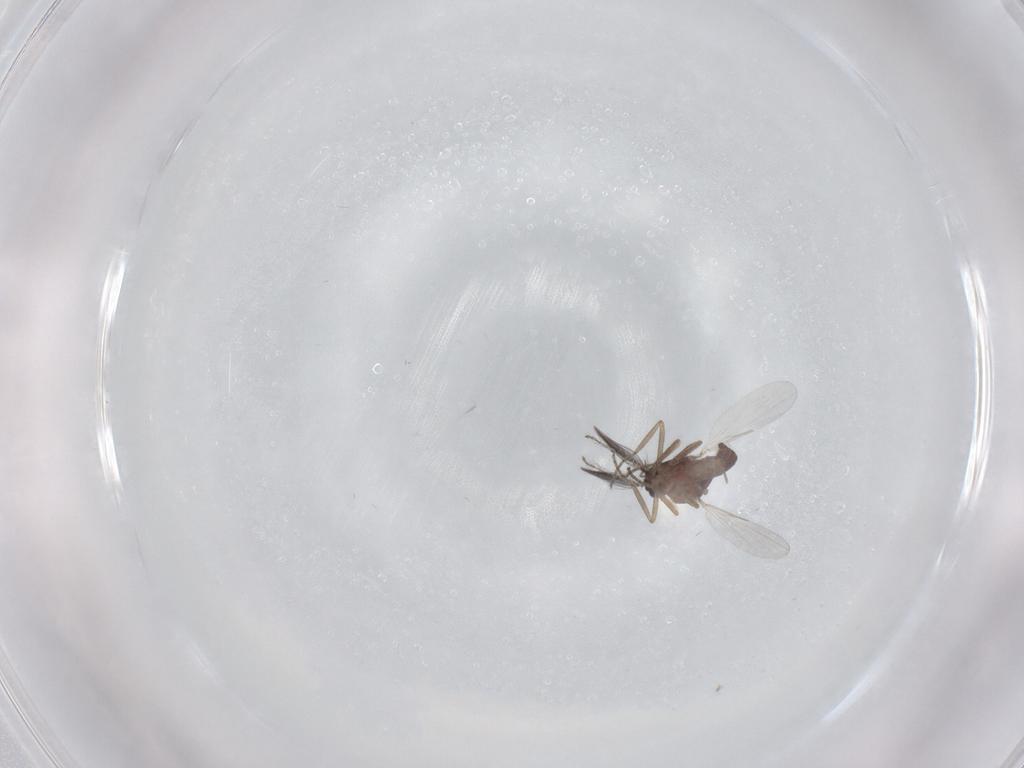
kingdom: Animalia
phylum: Arthropoda
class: Insecta
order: Diptera
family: Ceratopogonidae
